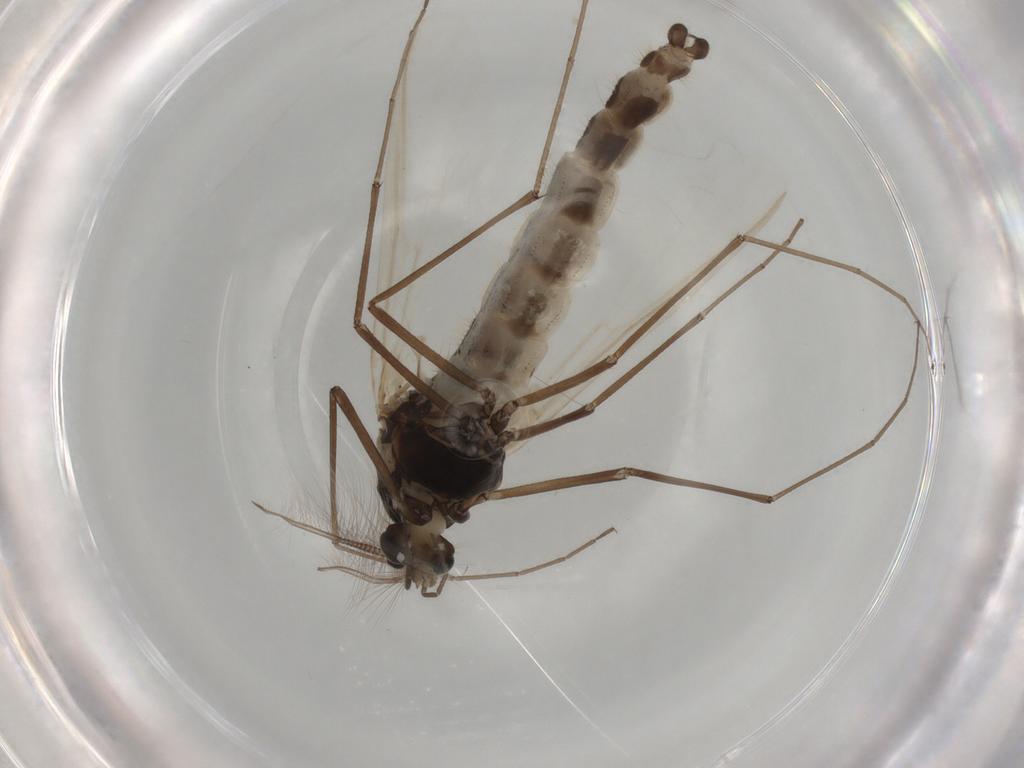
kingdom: Animalia
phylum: Arthropoda
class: Insecta
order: Diptera
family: Chironomidae
